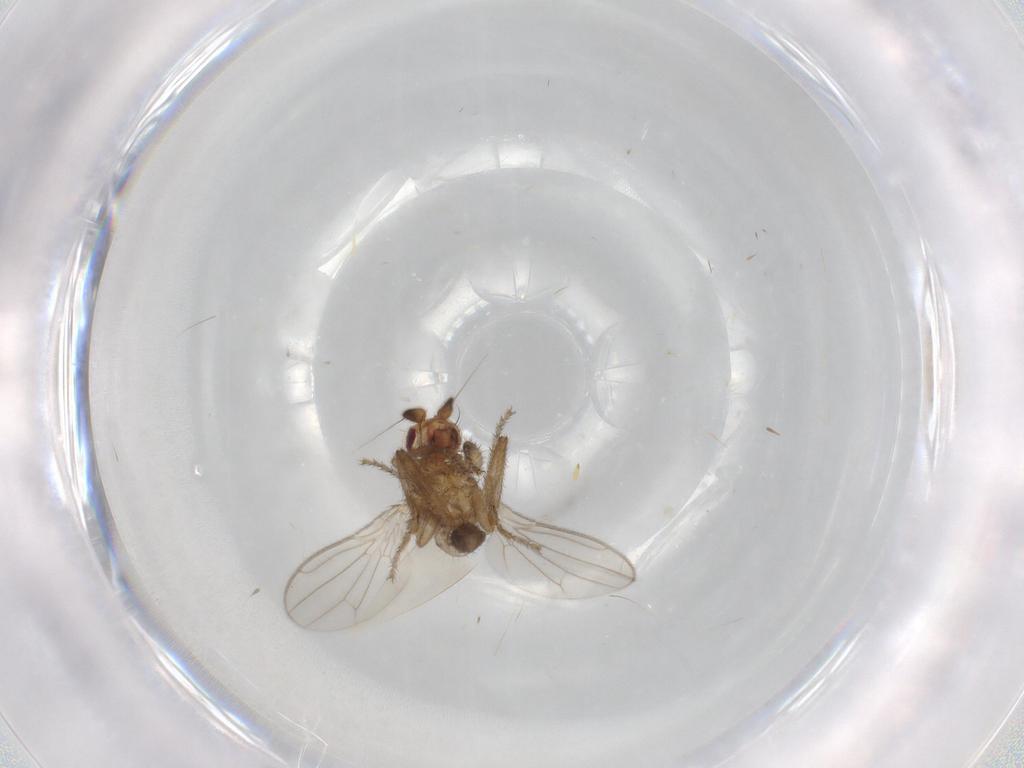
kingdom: Animalia
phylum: Arthropoda
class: Insecta
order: Diptera
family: Sphaeroceridae
